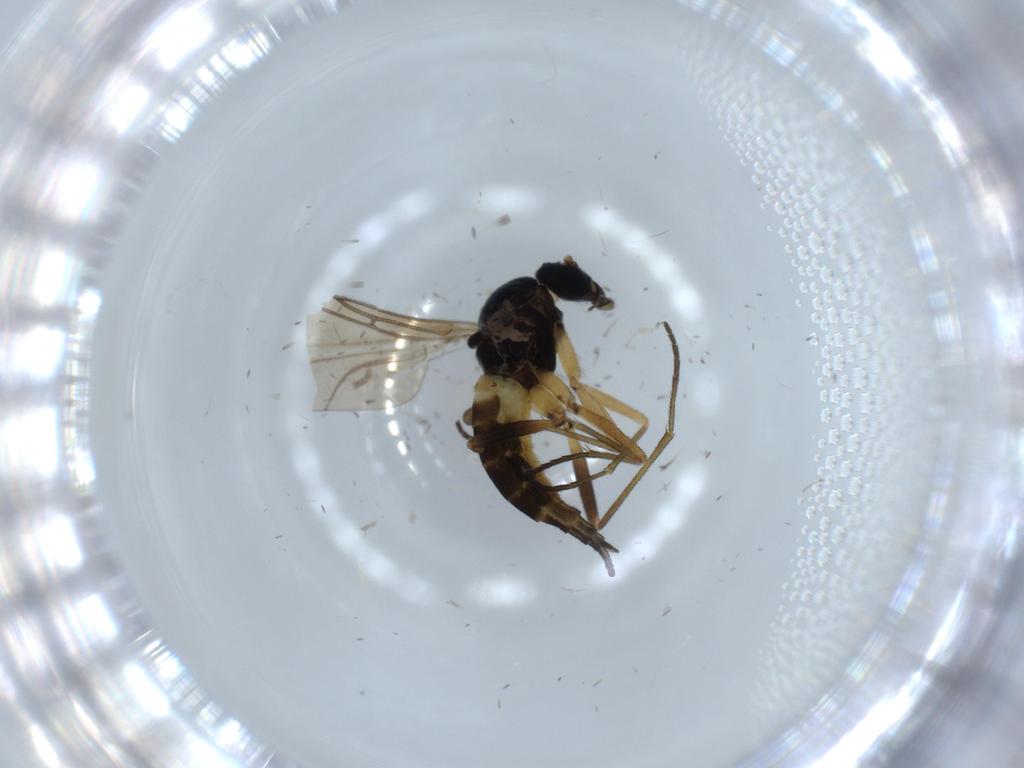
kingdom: Animalia
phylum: Arthropoda
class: Insecta
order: Diptera
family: Sciaridae
